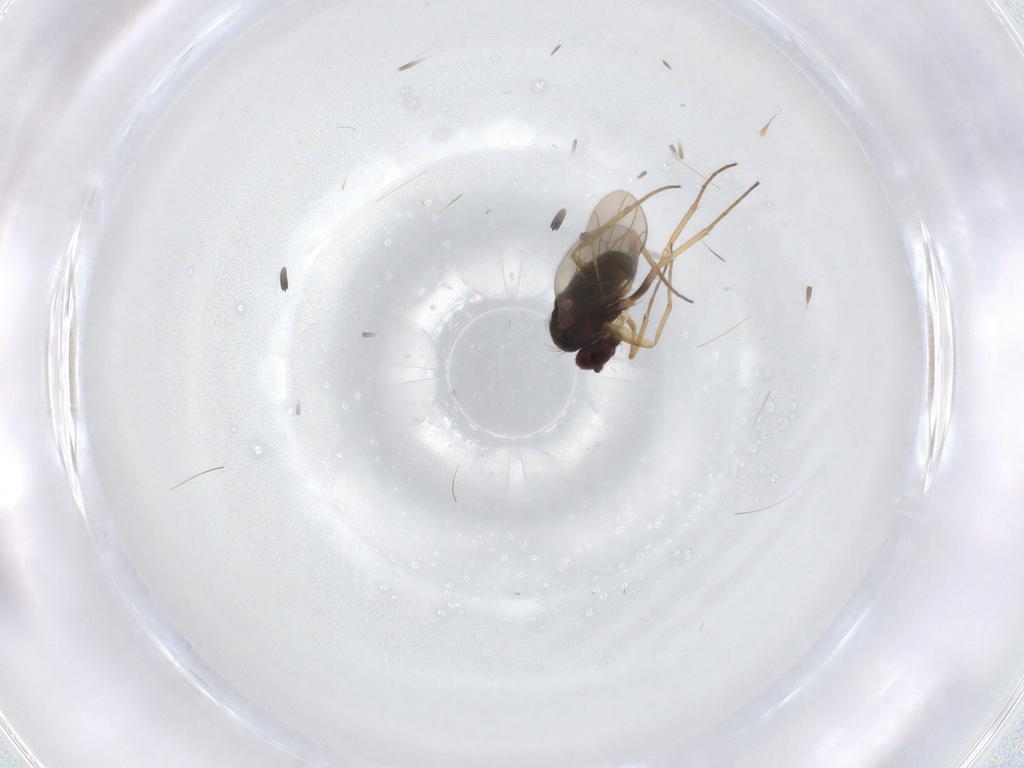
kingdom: Animalia
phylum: Arthropoda
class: Insecta
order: Diptera
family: Dolichopodidae
